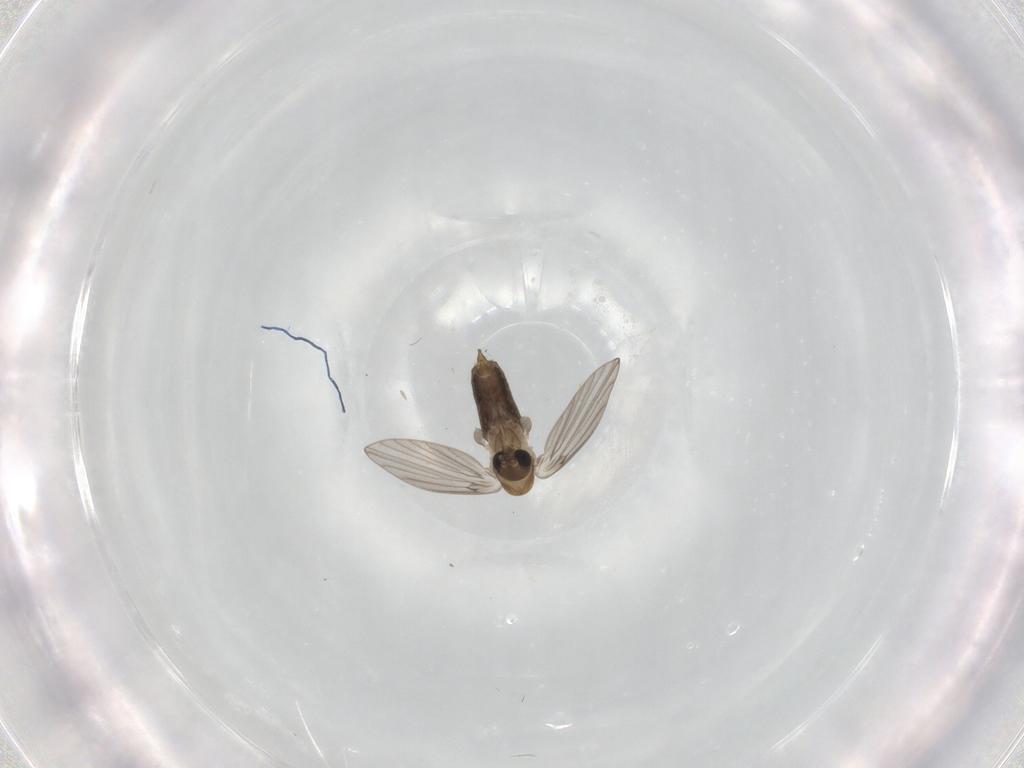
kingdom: Animalia
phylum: Arthropoda
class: Insecta
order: Diptera
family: Psychodidae
